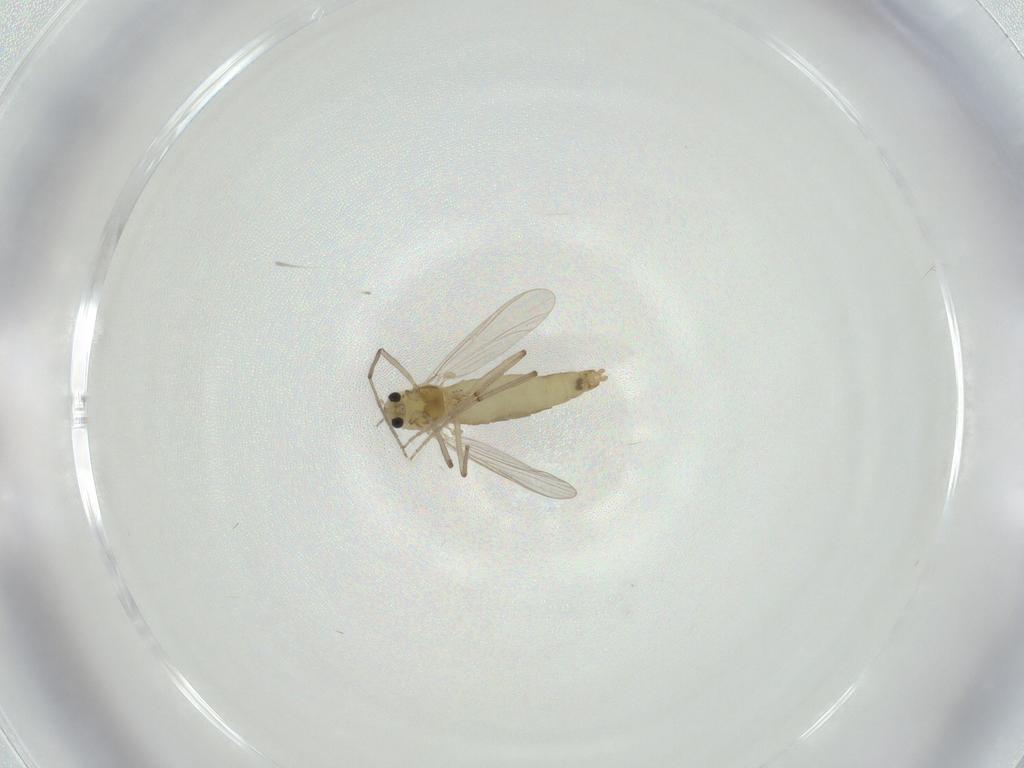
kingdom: Animalia
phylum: Arthropoda
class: Insecta
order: Diptera
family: Chironomidae
